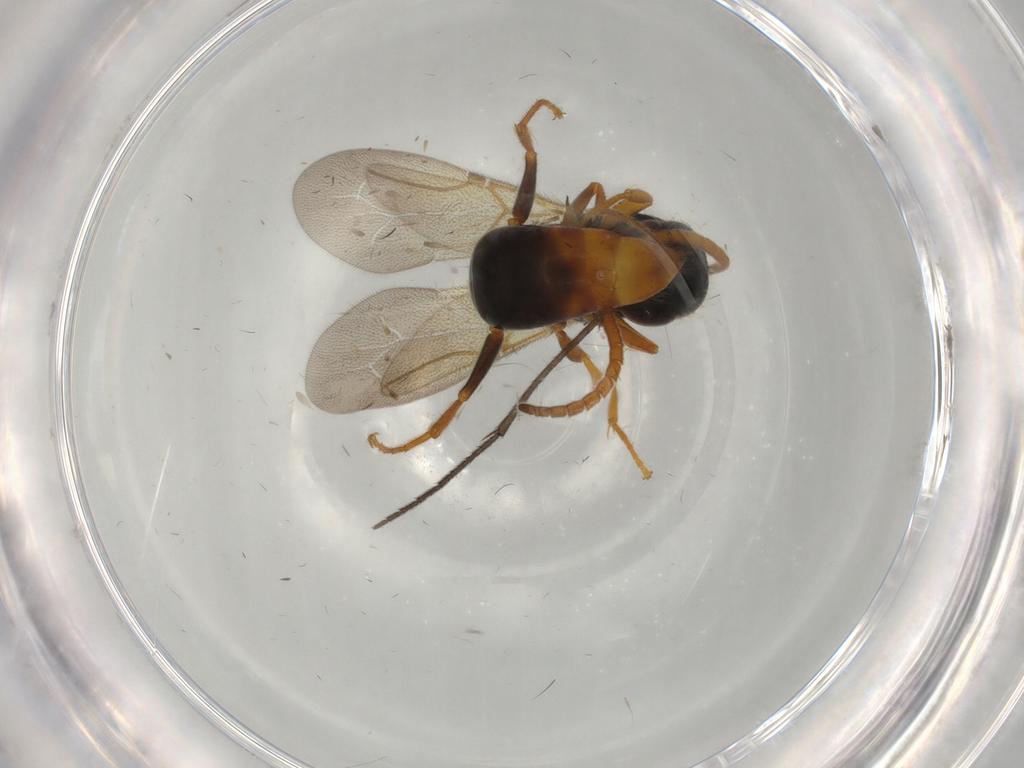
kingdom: Animalia
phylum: Arthropoda
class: Insecta
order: Hymenoptera
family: Bethylidae
